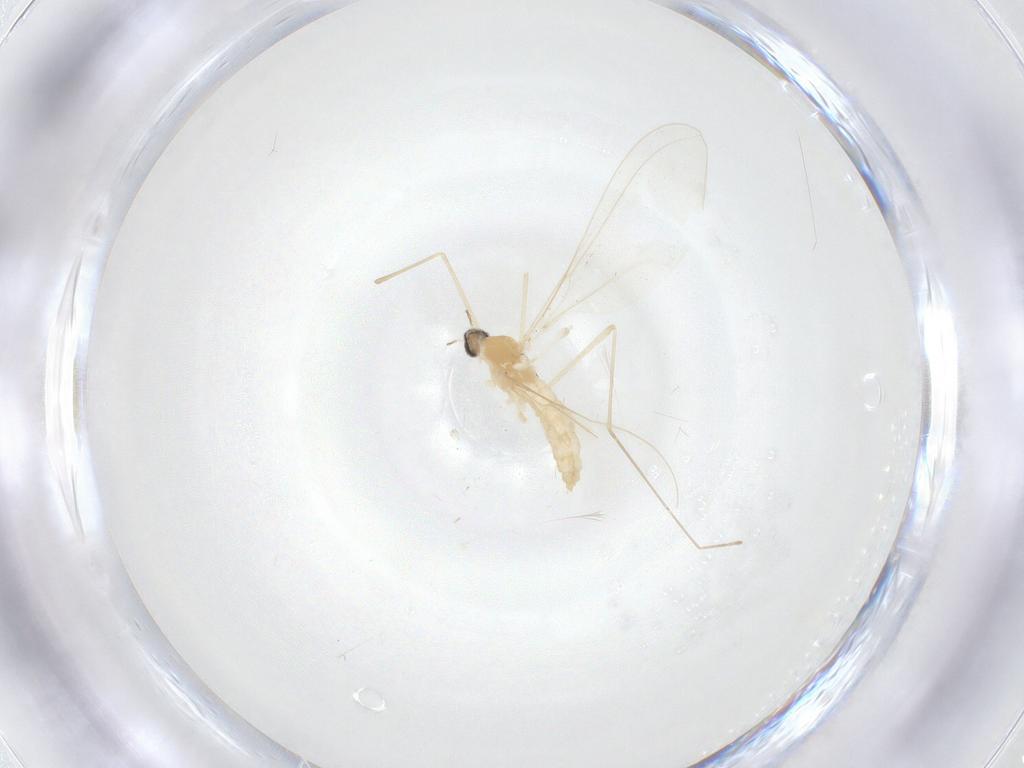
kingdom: Animalia
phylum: Arthropoda
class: Insecta
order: Diptera
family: Cecidomyiidae
